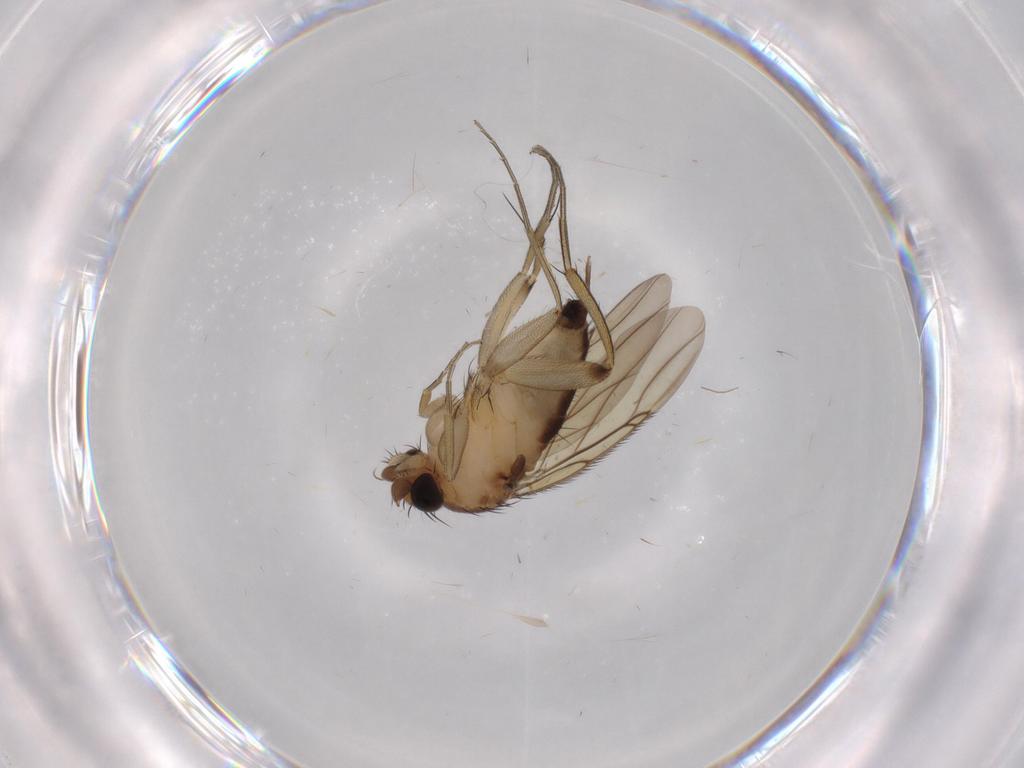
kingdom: Animalia
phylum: Arthropoda
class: Insecta
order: Diptera
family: Phoridae
